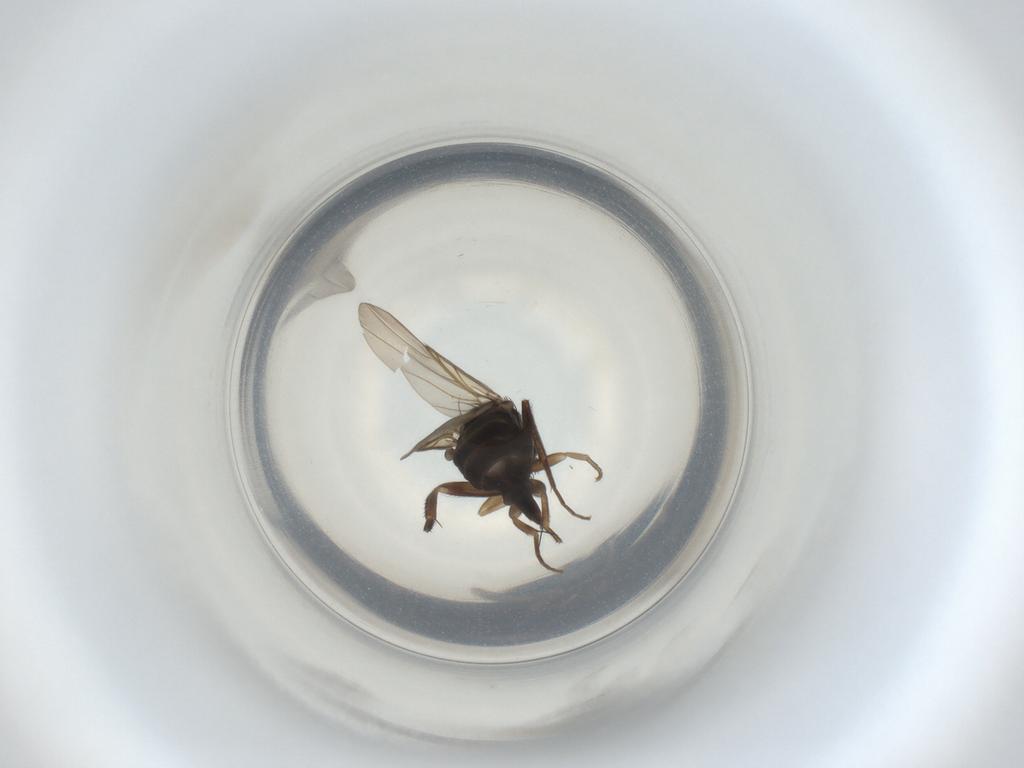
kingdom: Animalia
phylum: Arthropoda
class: Insecta
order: Diptera
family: Phoridae
